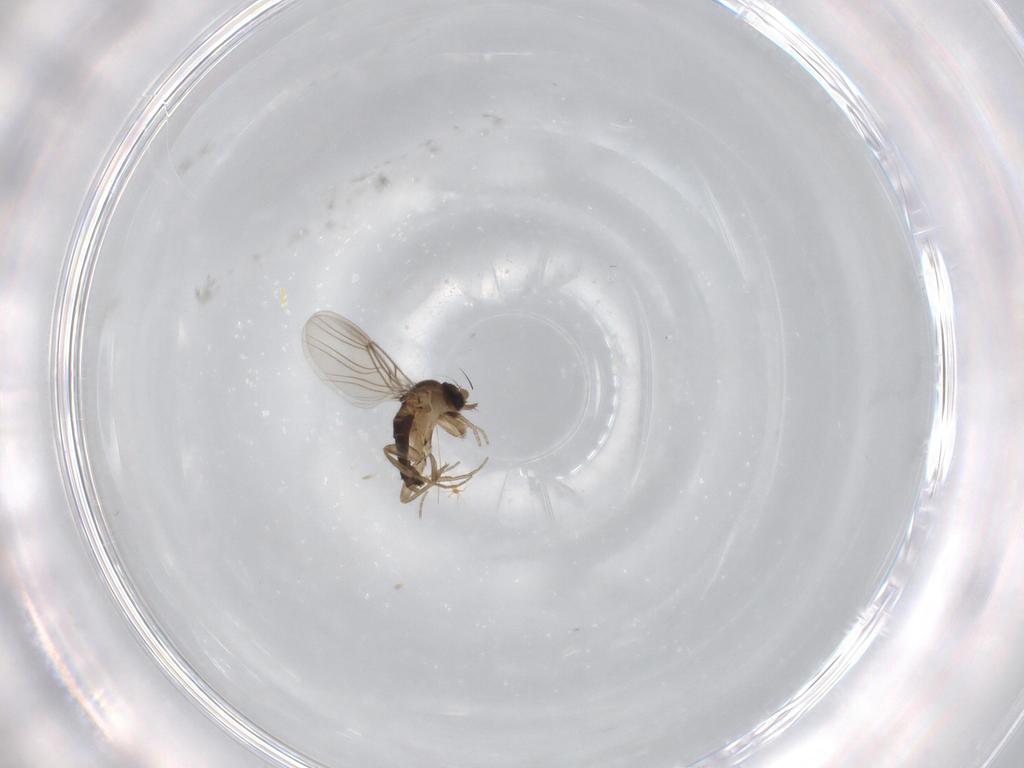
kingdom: Animalia
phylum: Arthropoda
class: Insecta
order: Diptera
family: Phoridae
